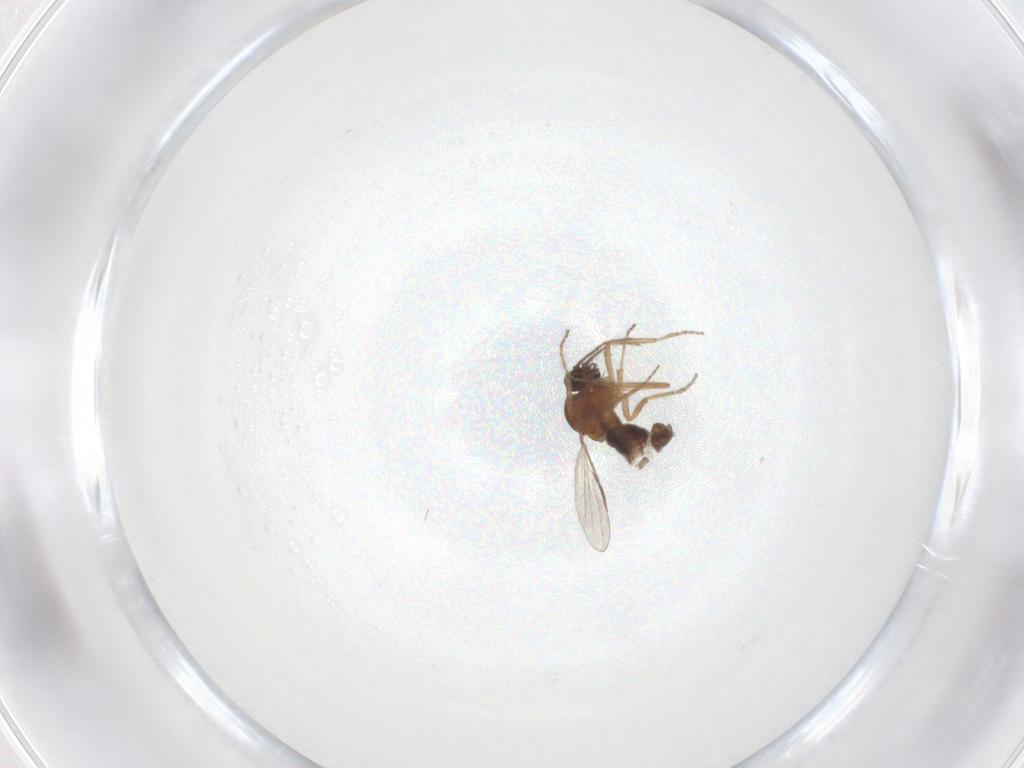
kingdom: Animalia
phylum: Arthropoda
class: Insecta
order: Diptera
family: Ceratopogonidae
